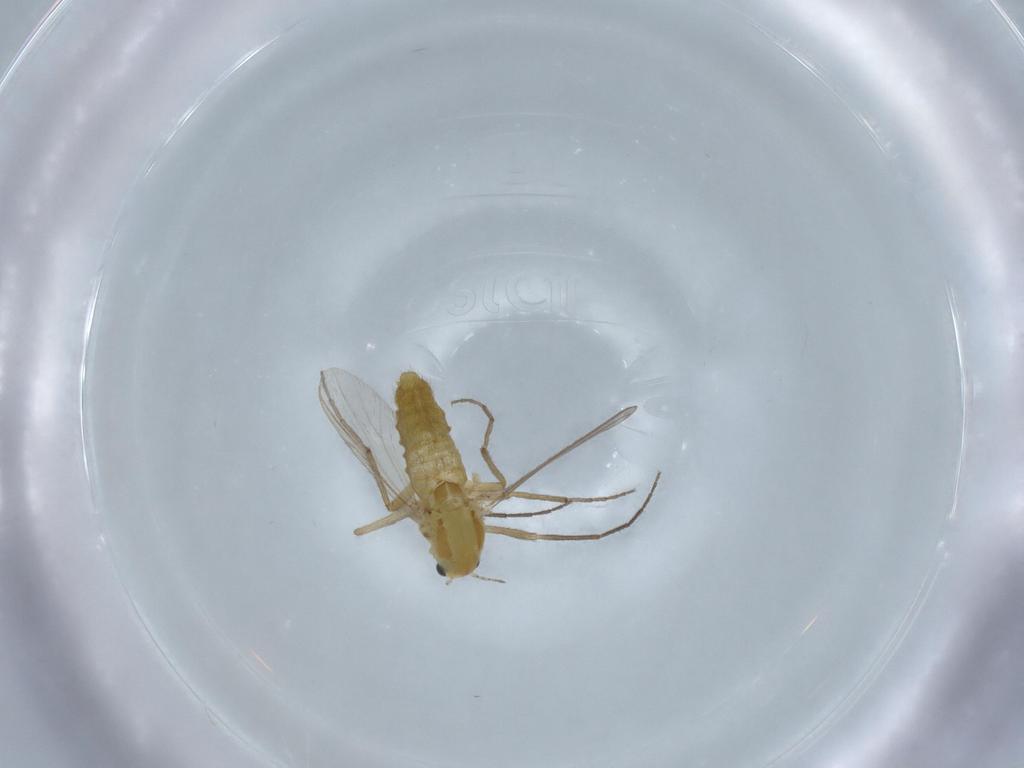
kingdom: Animalia
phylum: Arthropoda
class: Insecta
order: Diptera
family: Chironomidae
